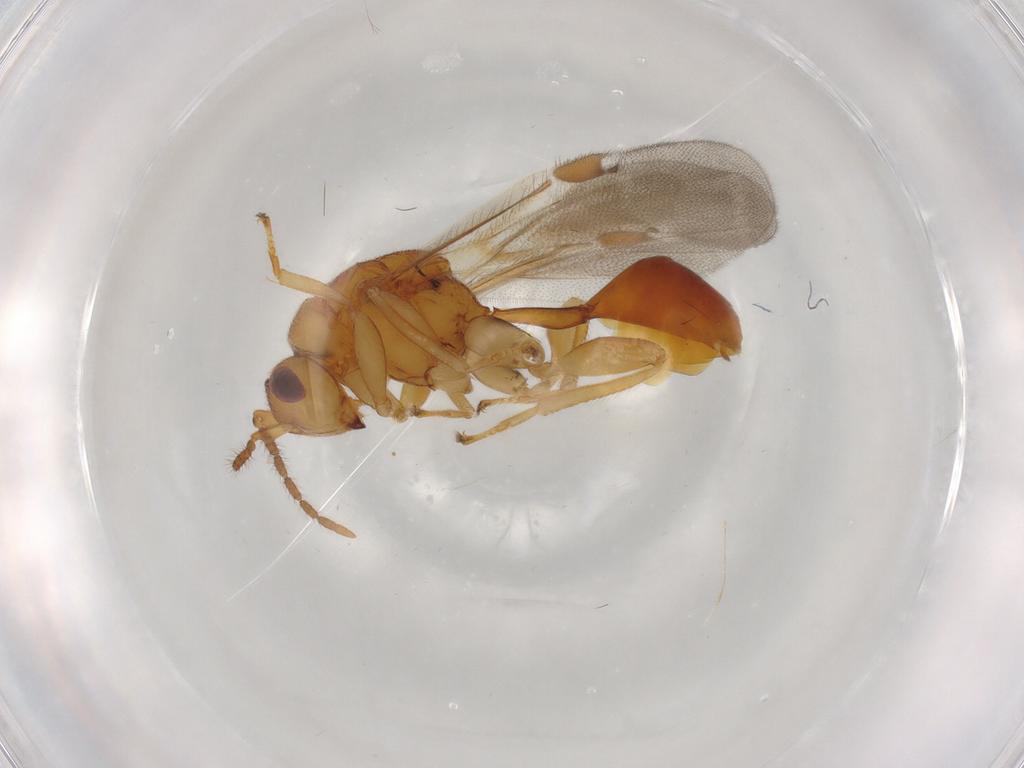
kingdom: Animalia
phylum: Arthropoda
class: Insecta
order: Hymenoptera
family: Eurytomidae
